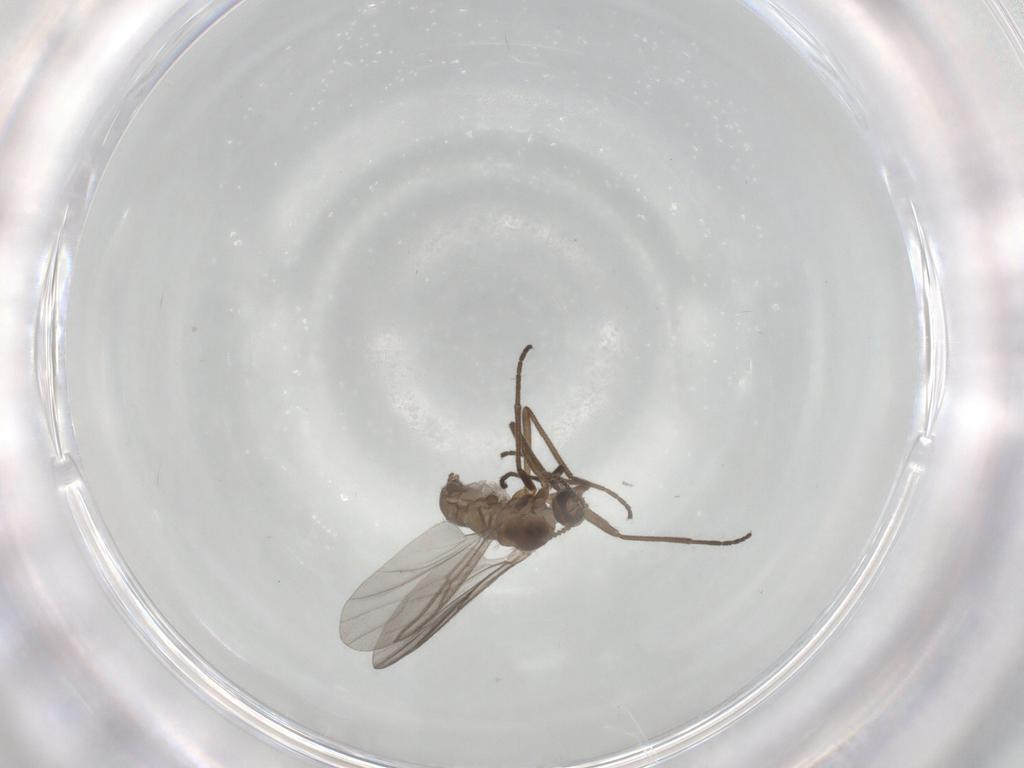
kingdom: Animalia
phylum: Arthropoda
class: Insecta
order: Diptera
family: Cecidomyiidae
